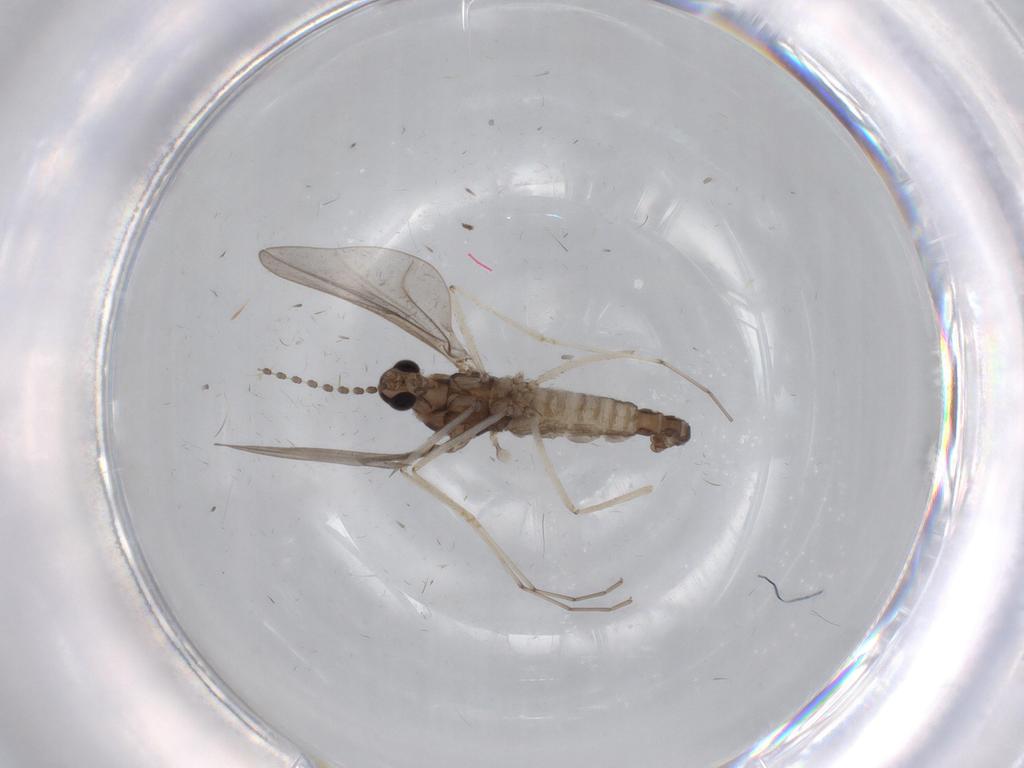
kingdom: Animalia
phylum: Arthropoda
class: Insecta
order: Diptera
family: Cecidomyiidae
